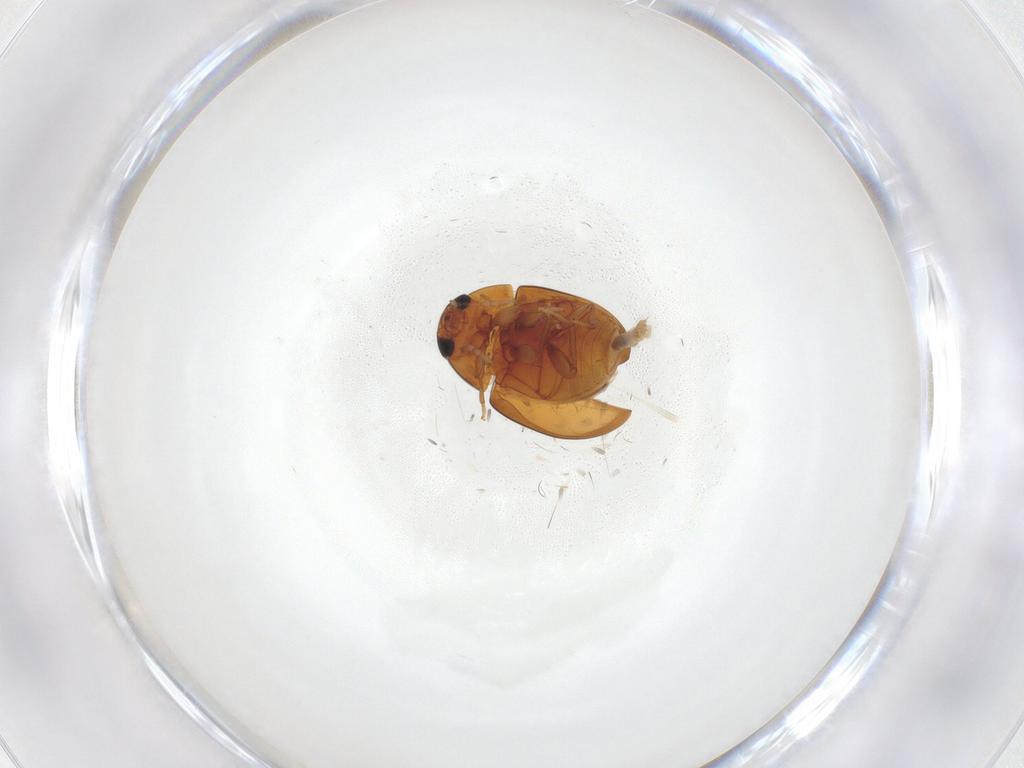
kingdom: Animalia
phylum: Arthropoda
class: Insecta
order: Coleoptera
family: Phalacridae
